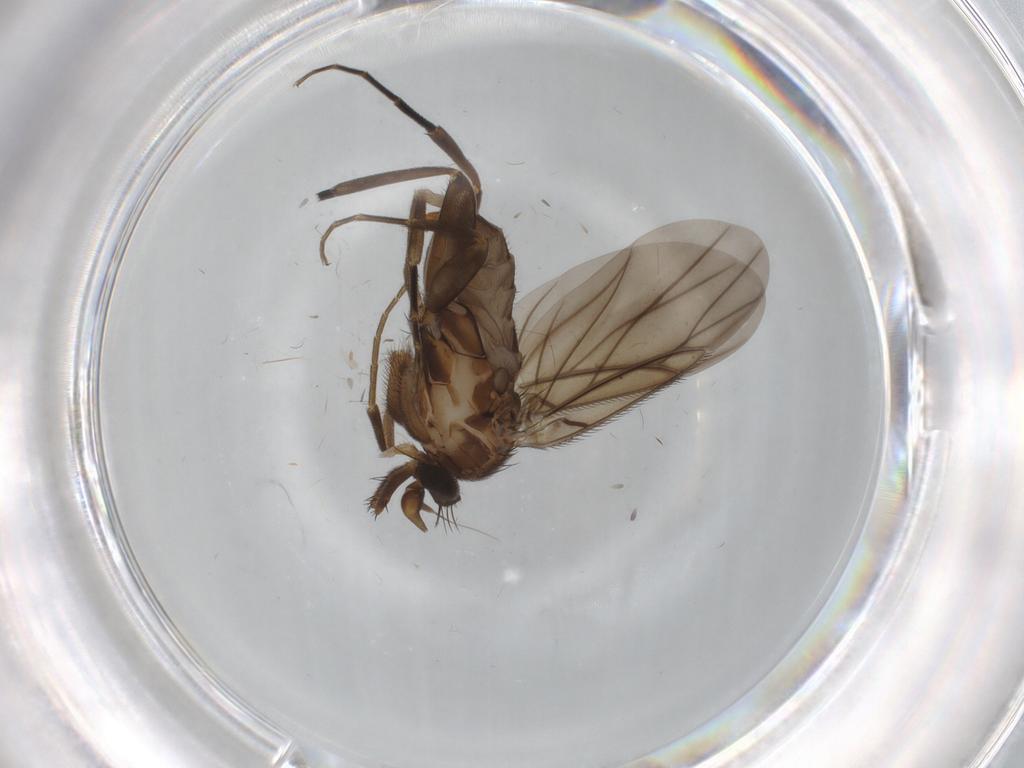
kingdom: Animalia
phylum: Arthropoda
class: Insecta
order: Diptera
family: Phoridae
